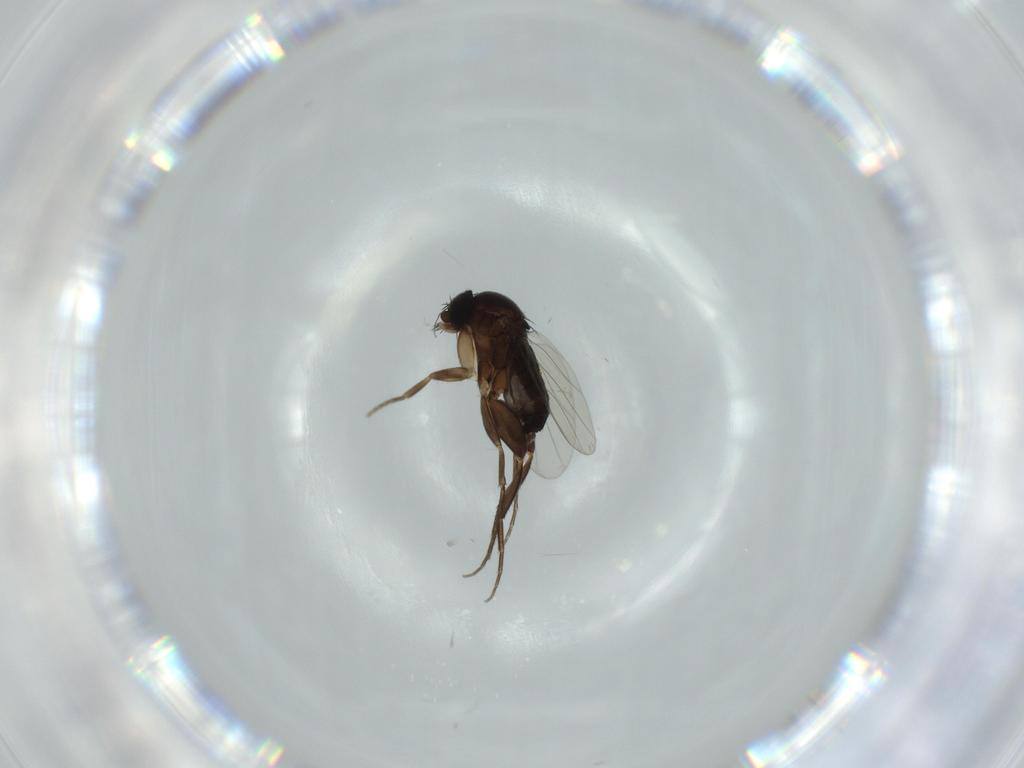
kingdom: Animalia
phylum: Arthropoda
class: Insecta
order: Diptera
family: Phoridae
